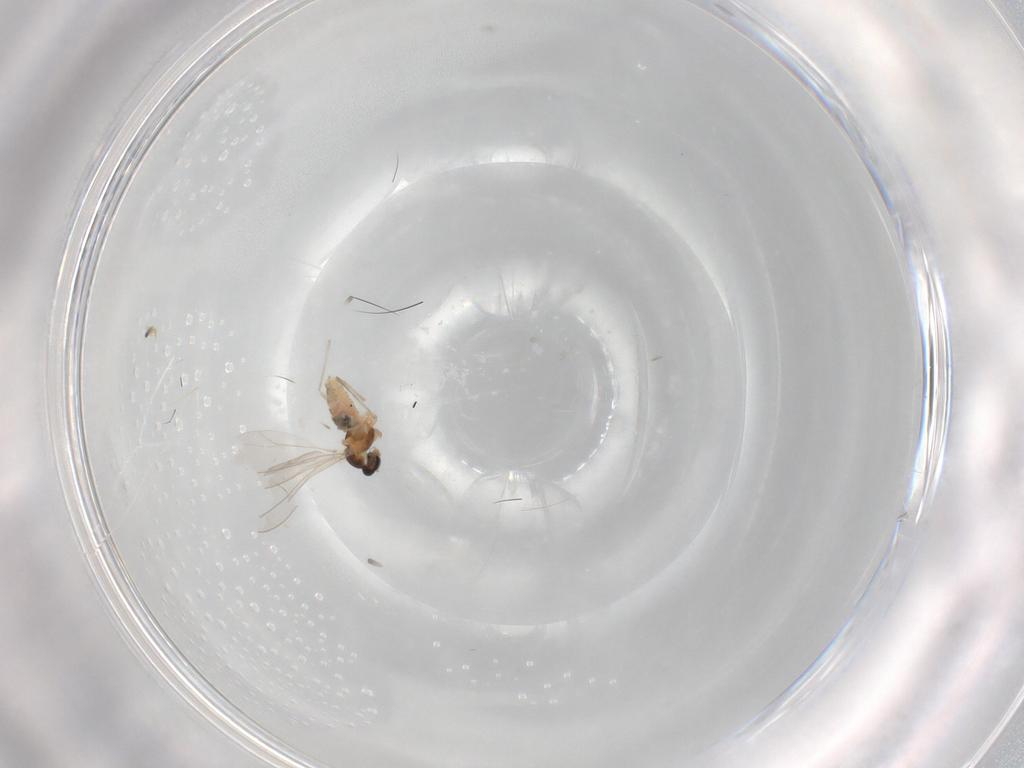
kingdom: Animalia
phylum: Arthropoda
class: Insecta
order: Diptera
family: Cecidomyiidae
